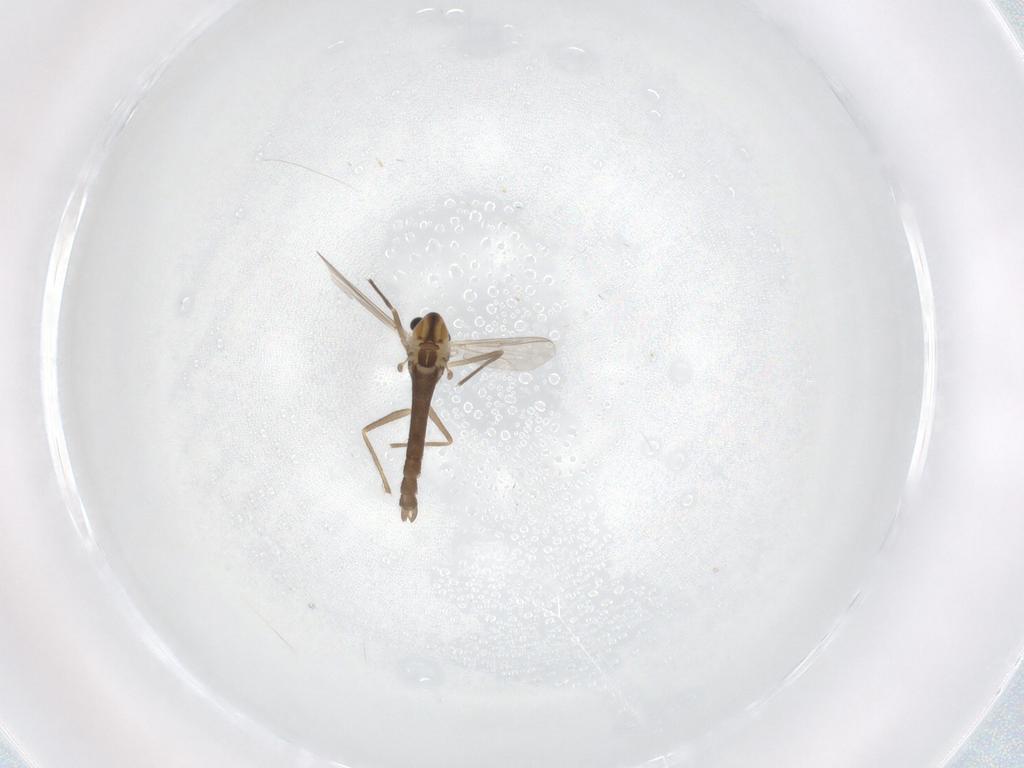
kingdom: Animalia
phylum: Arthropoda
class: Insecta
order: Diptera
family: Chironomidae
